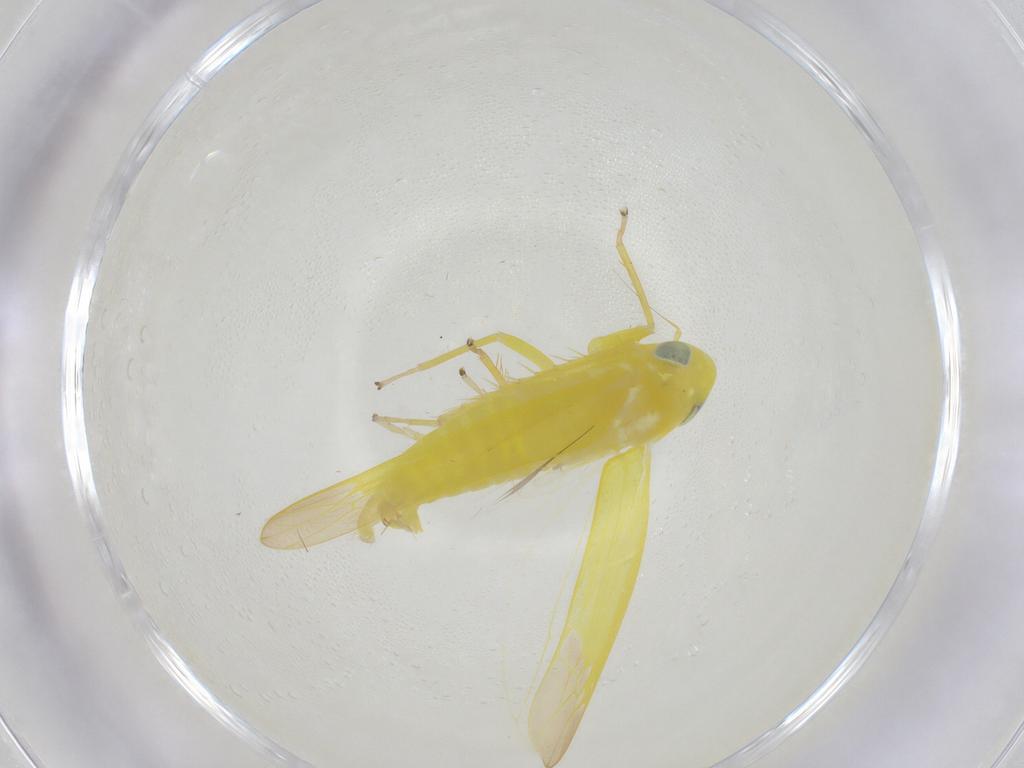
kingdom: Animalia
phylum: Arthropoda
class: Insecta
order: Hemiptera
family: Cicadellidae
